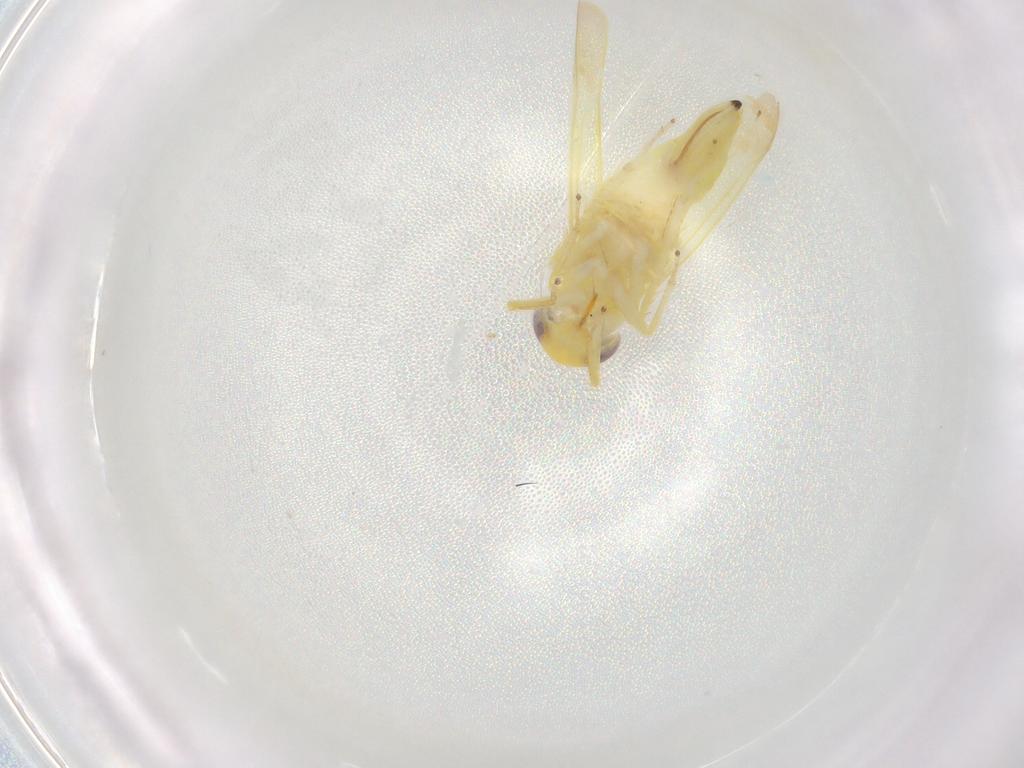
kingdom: Animalia
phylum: Arthropoda
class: Insecta
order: Hemiptera
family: Cicadellidae
